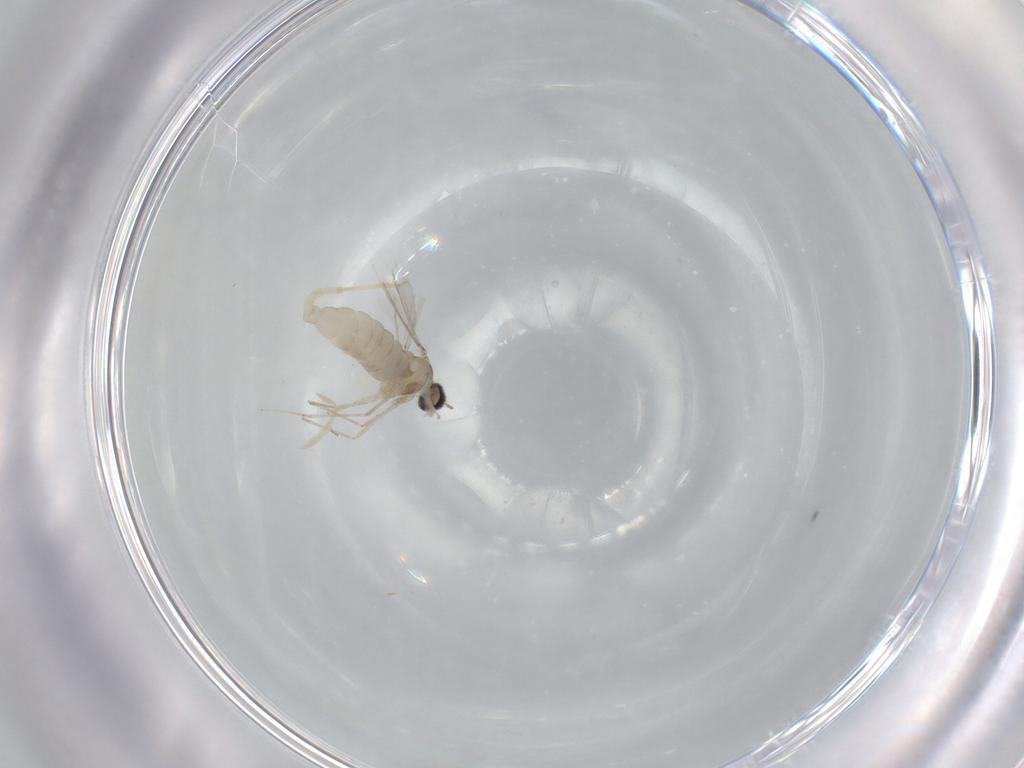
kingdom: Animalia
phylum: Arthropoda
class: Insecta
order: Diptera
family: Cecidomyiidae
